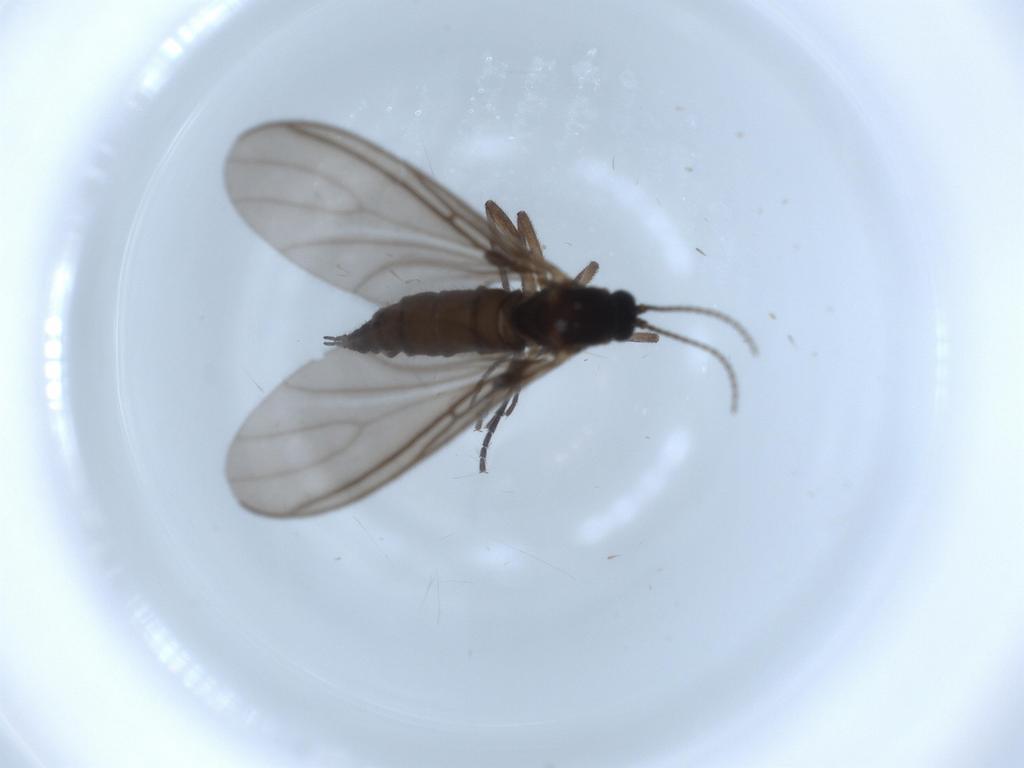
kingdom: Animalia
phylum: Arthropoda
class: Insecta
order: Diptera
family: Sciaridae
